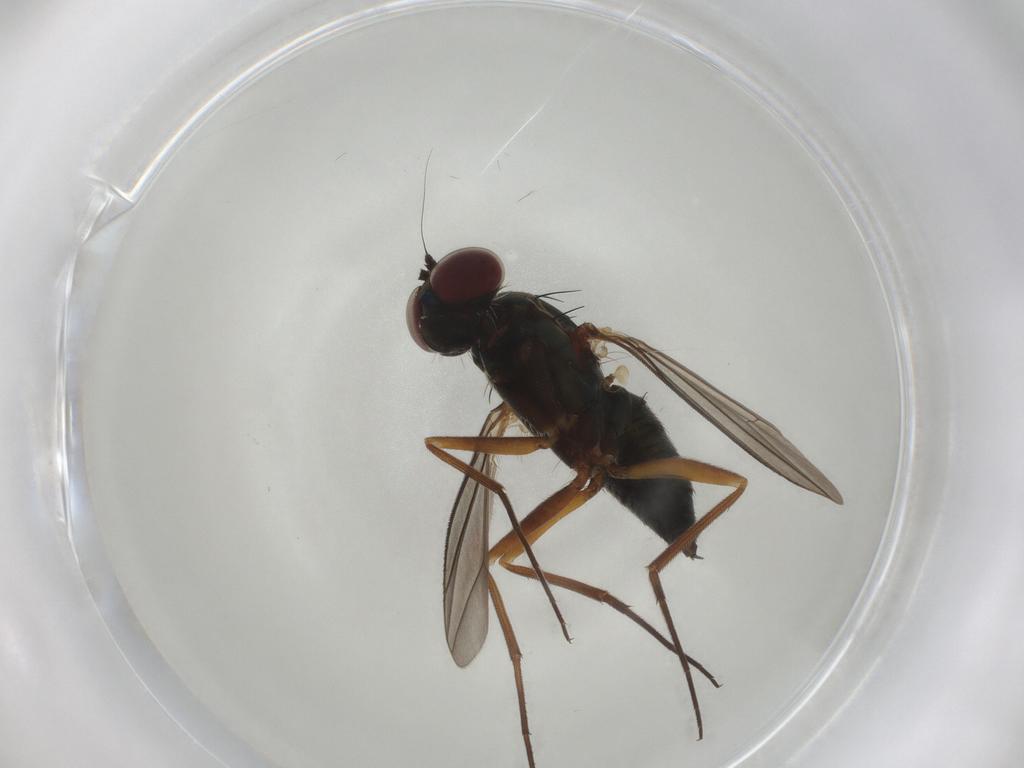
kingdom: Animalia
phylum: Arthropoda
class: Insecta
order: Diptera
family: Dolichopodidae
